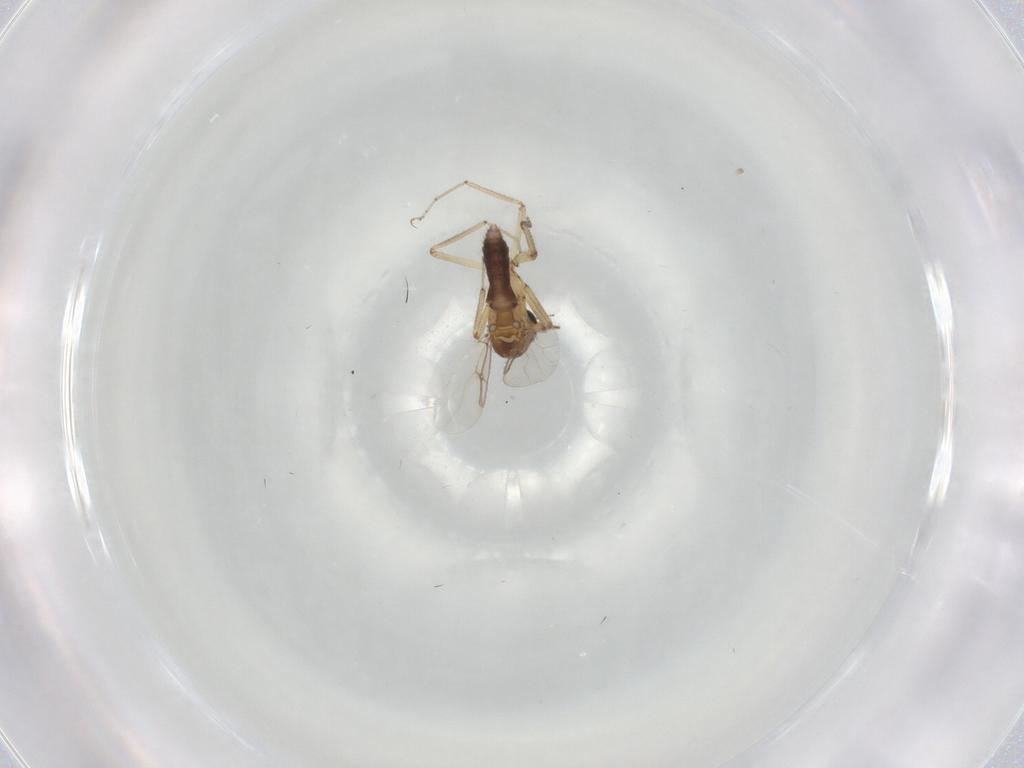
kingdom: Animalia
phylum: Arthropoda
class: Insecta
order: Diptera
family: Ceratopogonidae
